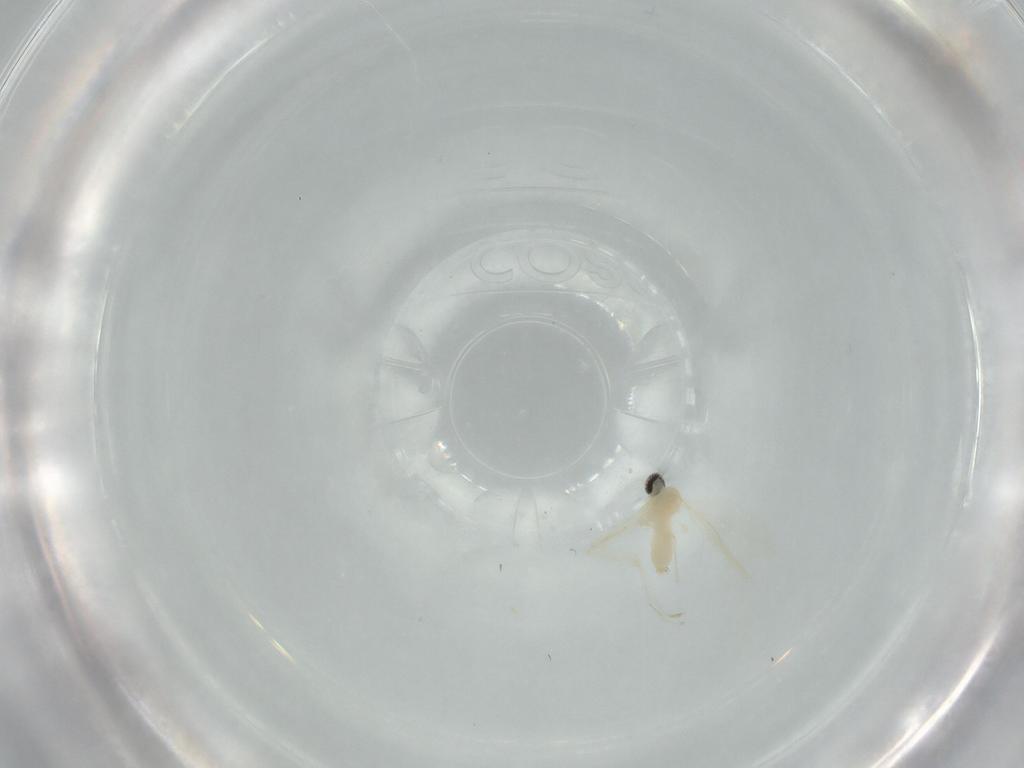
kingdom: Animalia
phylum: Arthropoda
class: Insecta
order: Diptera
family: Cecidomyiidae
